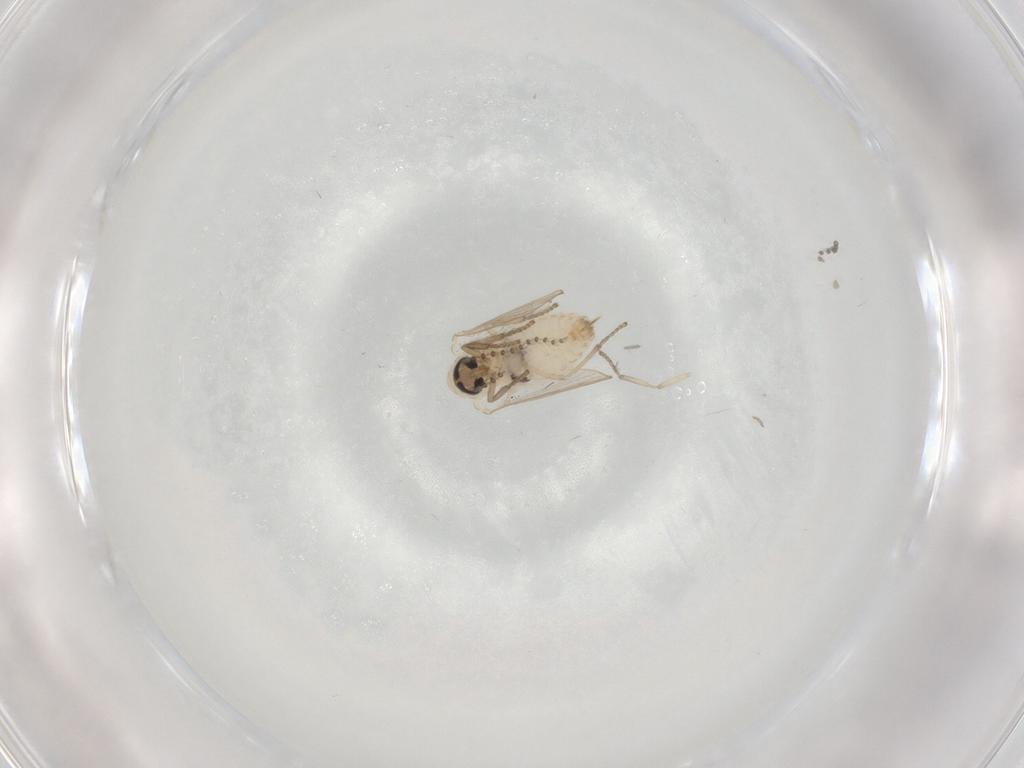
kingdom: Animalia
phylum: Arthropoda
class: Insecta
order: Diptera
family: Psychodidae
